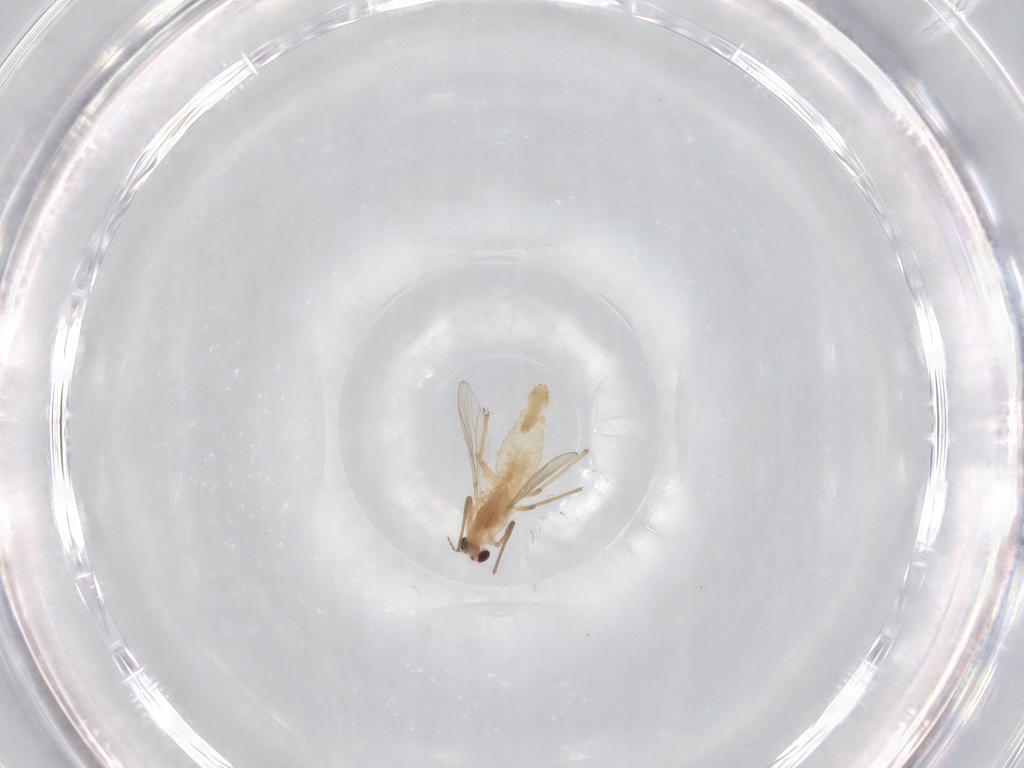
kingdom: Animalia
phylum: Arthropoda
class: Insecta
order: Diptera
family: Chironomidae
